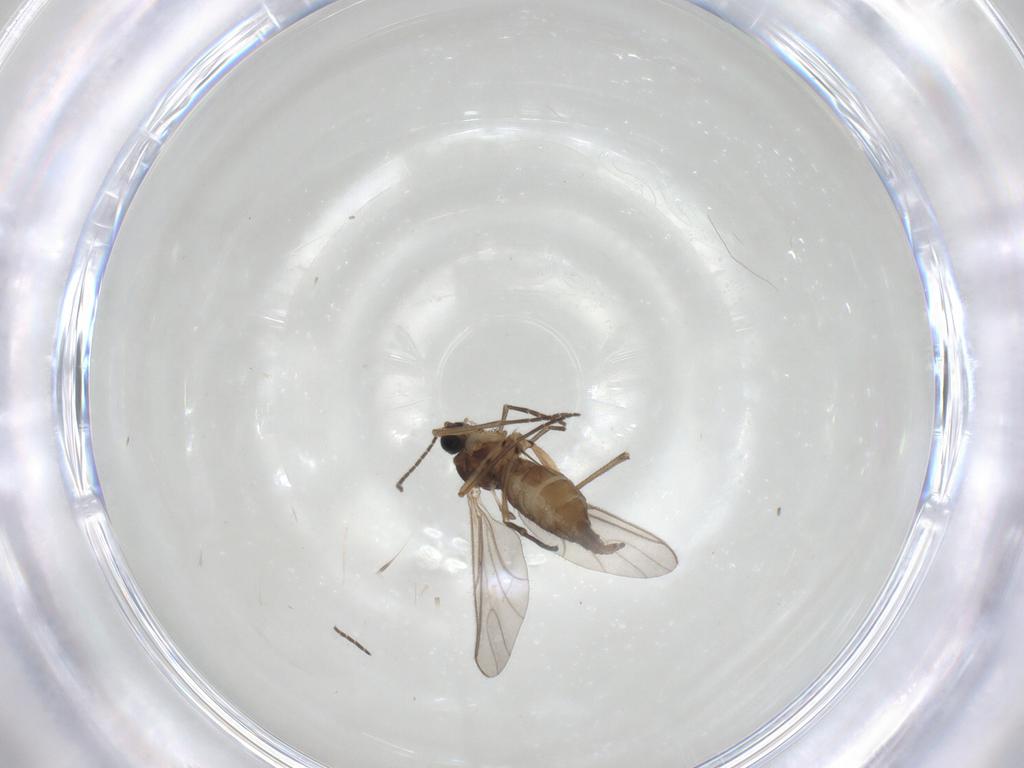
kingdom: Animalia
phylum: Arthropoda
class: Insecta
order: Diptera
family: Sciaridae
